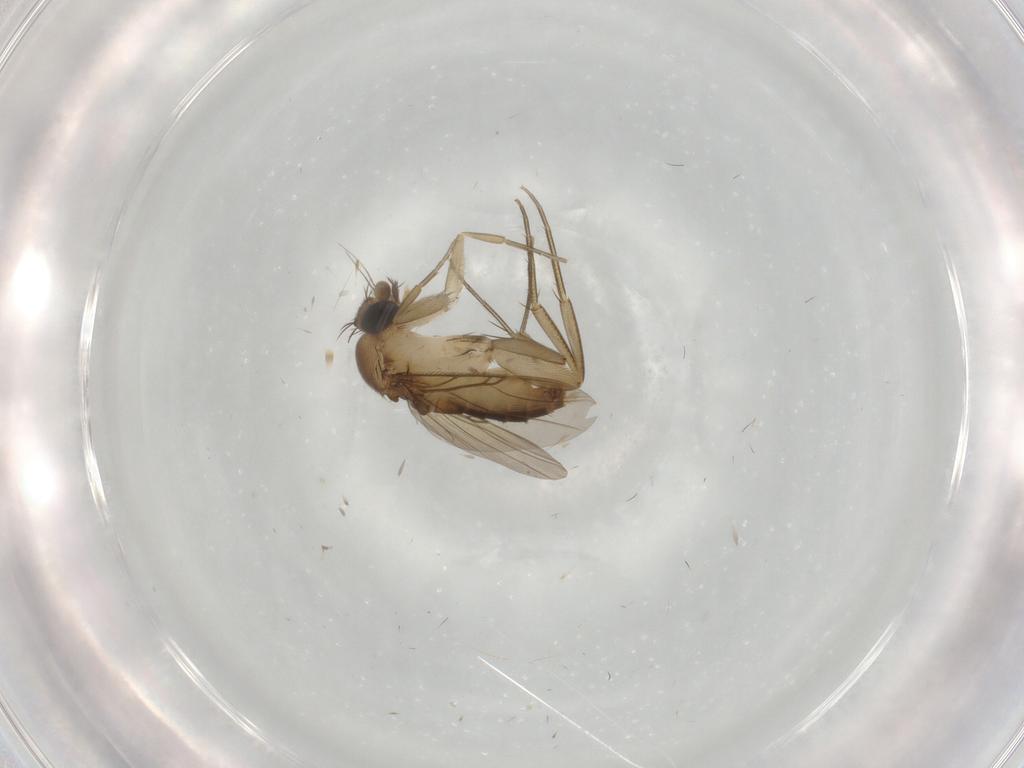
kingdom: Animalia
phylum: Arthropoda
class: Insecta
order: Diptera
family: Phoridae
